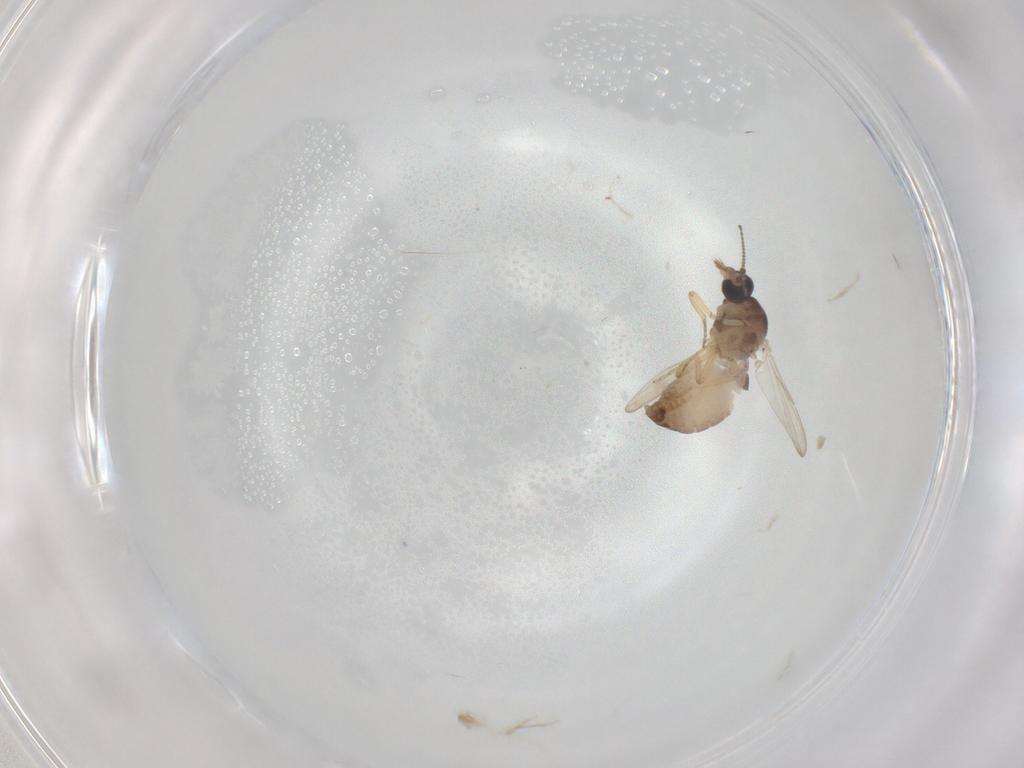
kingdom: Animalia
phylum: Arthropoda
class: Insecta
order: Diptera
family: Ceratopogonidae
